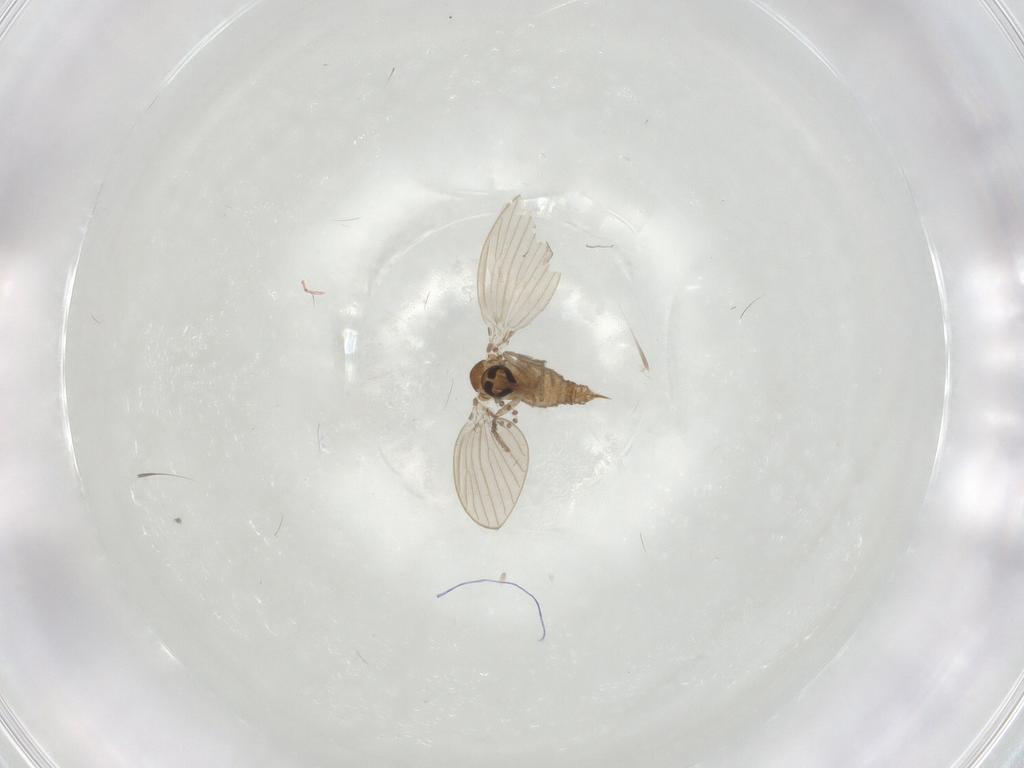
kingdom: Animalia
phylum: Arthropoda
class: Insecta
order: Diptera
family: Psychodidae
